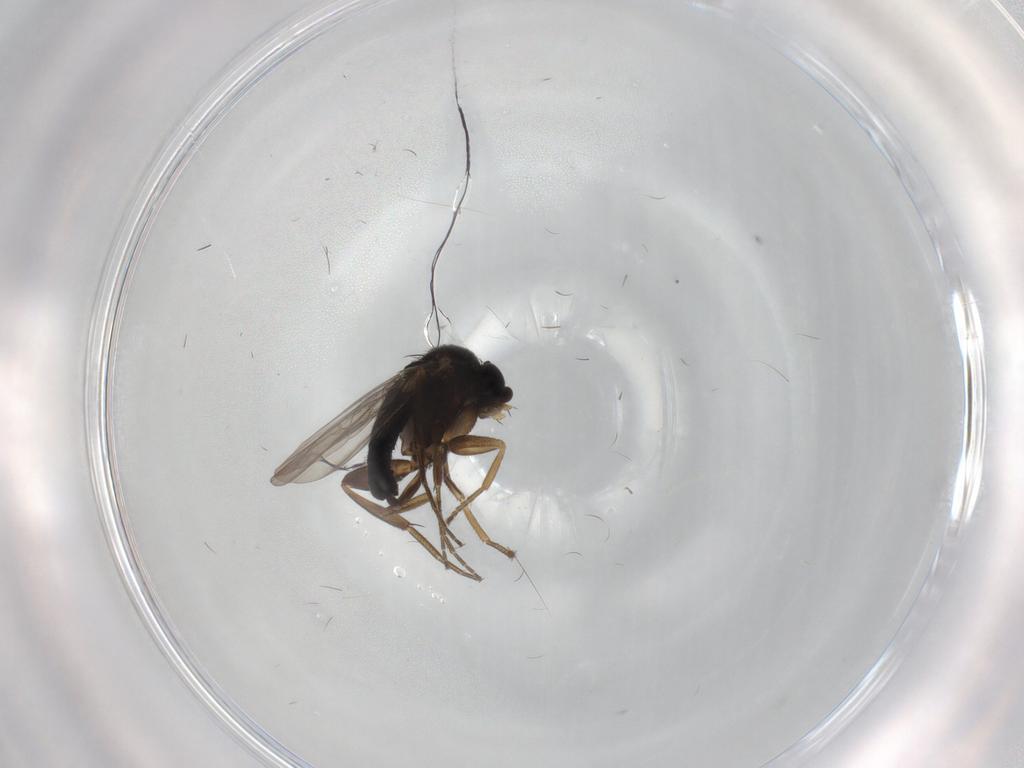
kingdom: Animalia
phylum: Arthropoda
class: Insecta
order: Diptera
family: Phoridae
